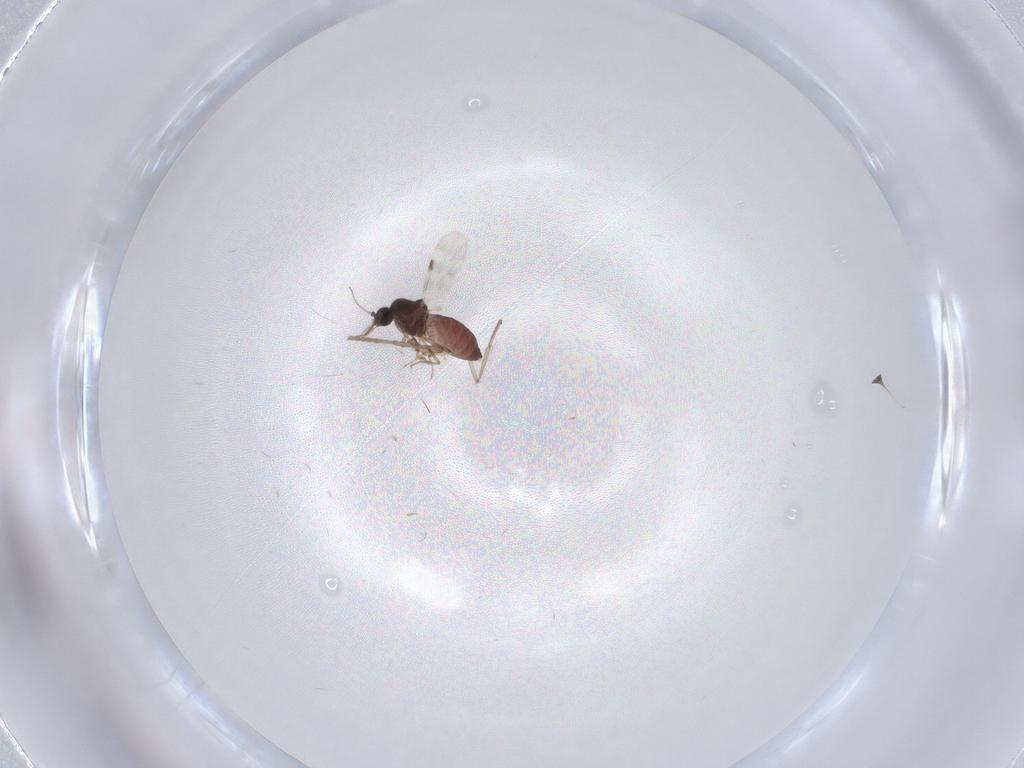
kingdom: Animalia
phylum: Arthropoda
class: Insecta
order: Diptera
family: Psychodidae
